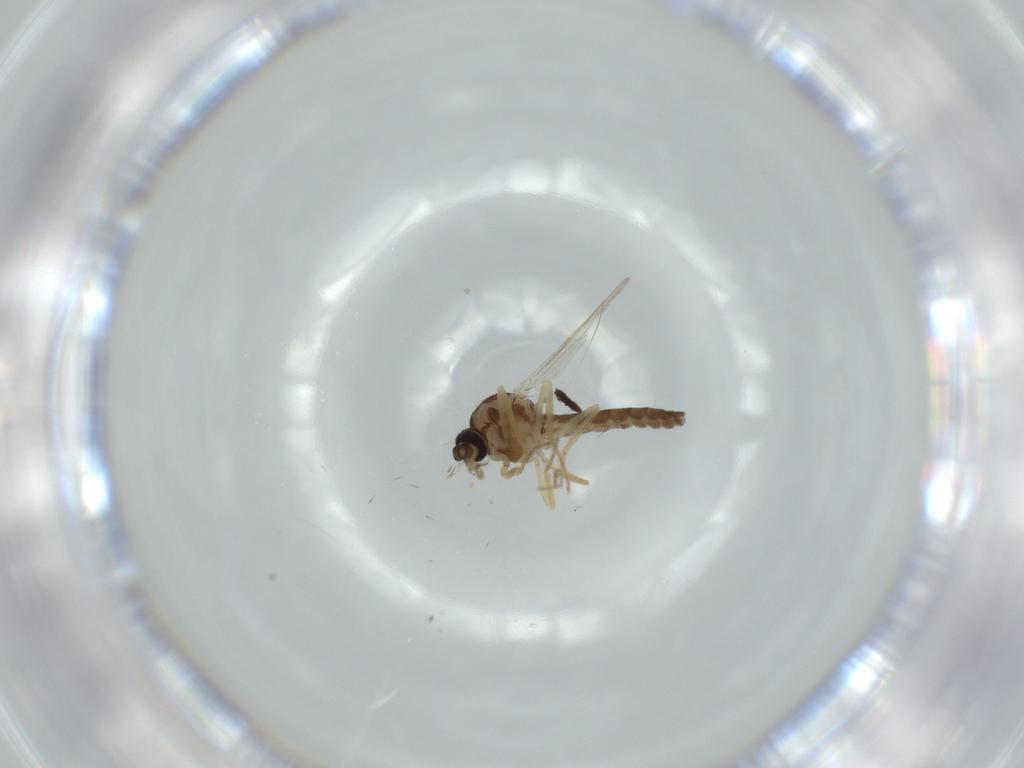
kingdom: Animalia
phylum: Arthropoda
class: Insecta
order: Diptera
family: Ceratopogonidae
